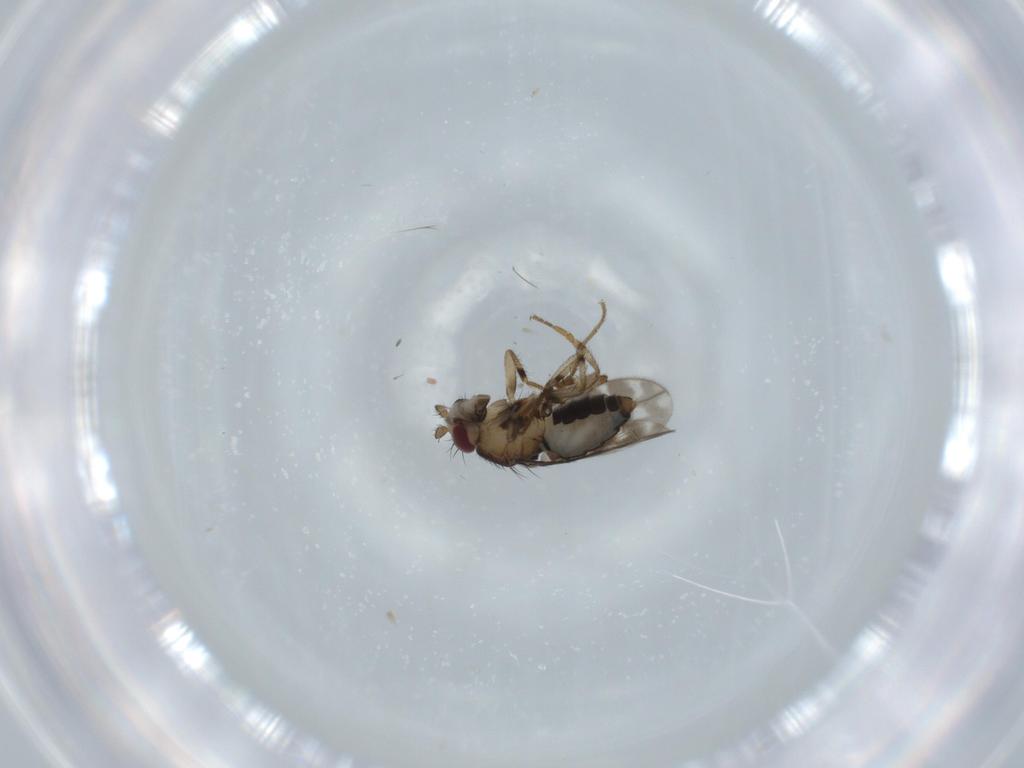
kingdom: Animalia
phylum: Arthropoda
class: Insecta
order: Diptera
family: Sphaeroceridae
